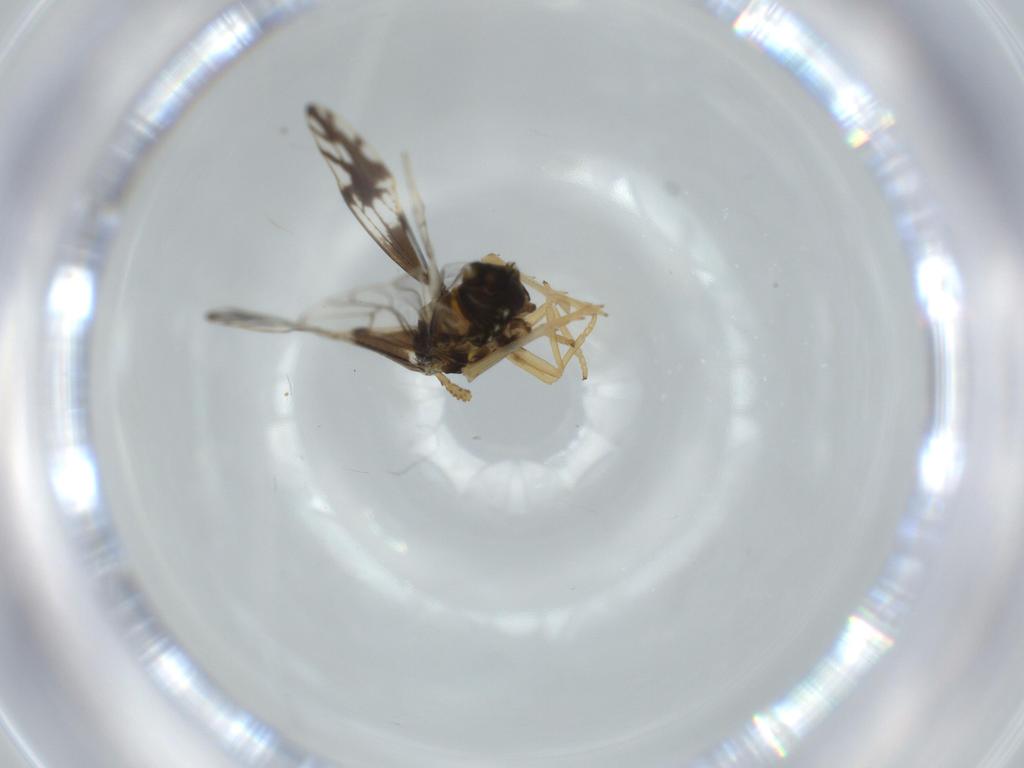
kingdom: Animalia
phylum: Arthropoda
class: Insecta
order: Hemiptera
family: Delphacidae
